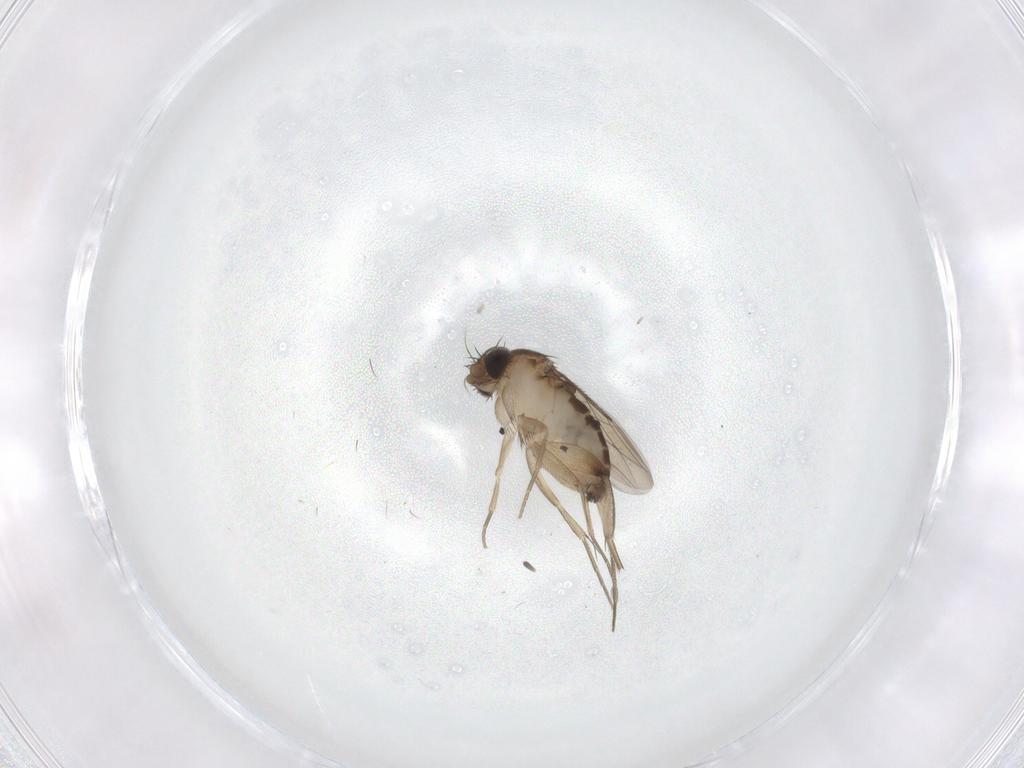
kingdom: Animalia
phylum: Arthropoda
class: Insecta
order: Diptera
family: Phoridae
